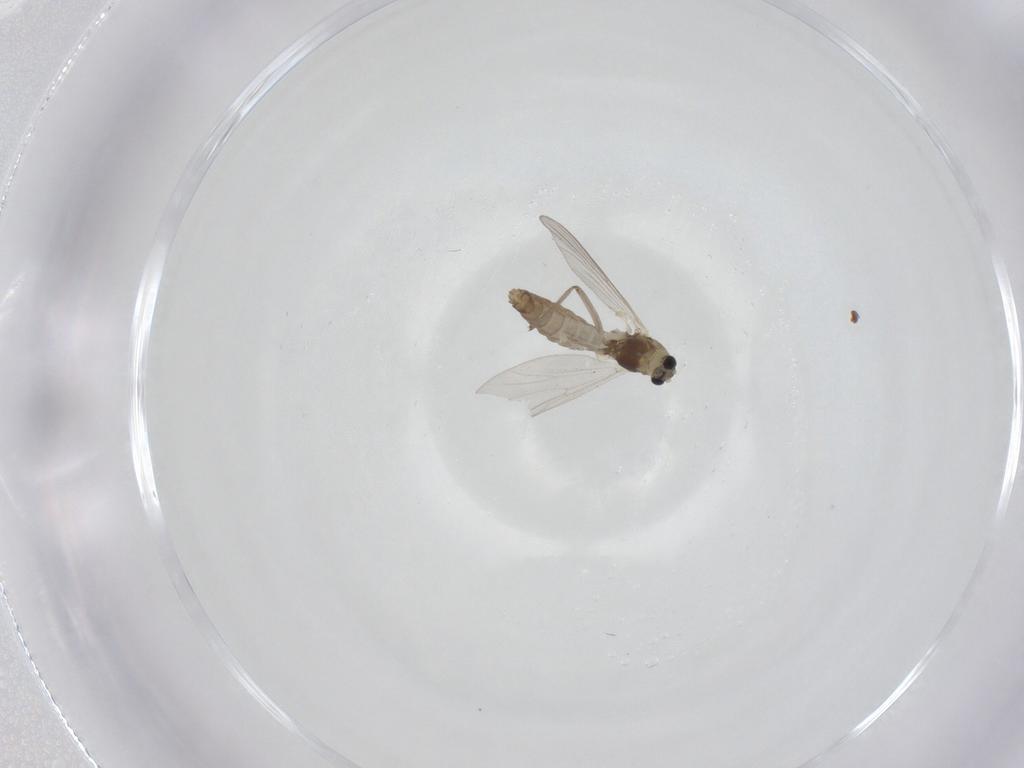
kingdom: Animalia
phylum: Arthropoda
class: Insecta
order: Diptera
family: Chironomidae
